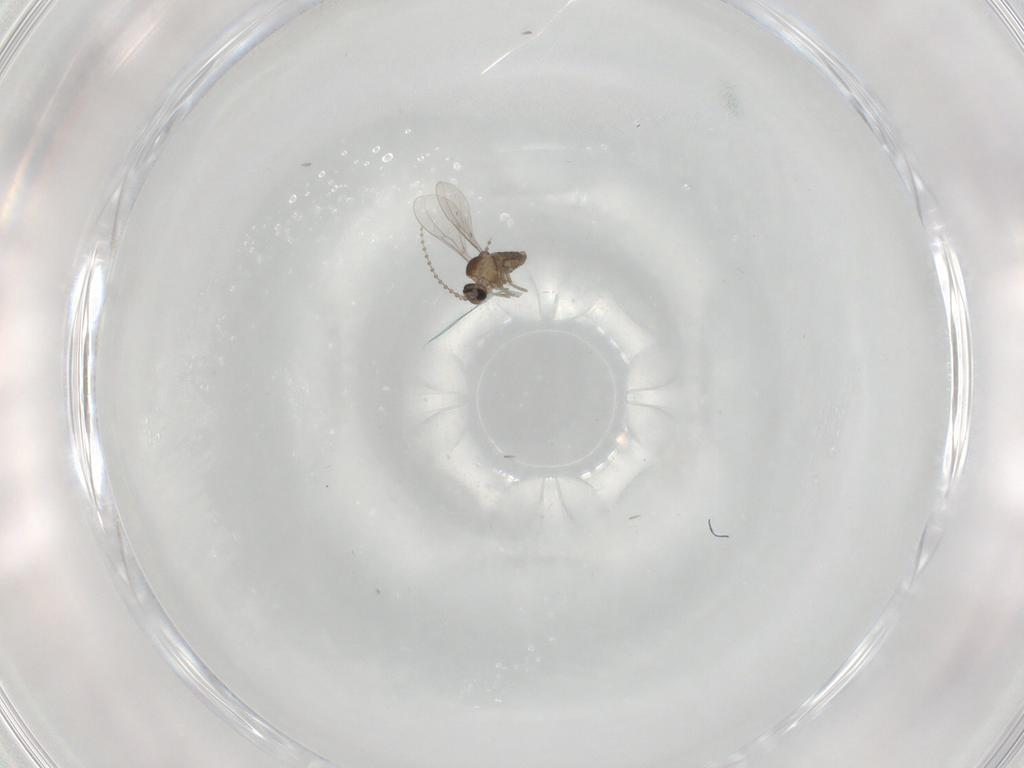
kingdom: Animalia
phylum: Arthropoda
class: Insecta
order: Diptera
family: Cecidomyiidae
